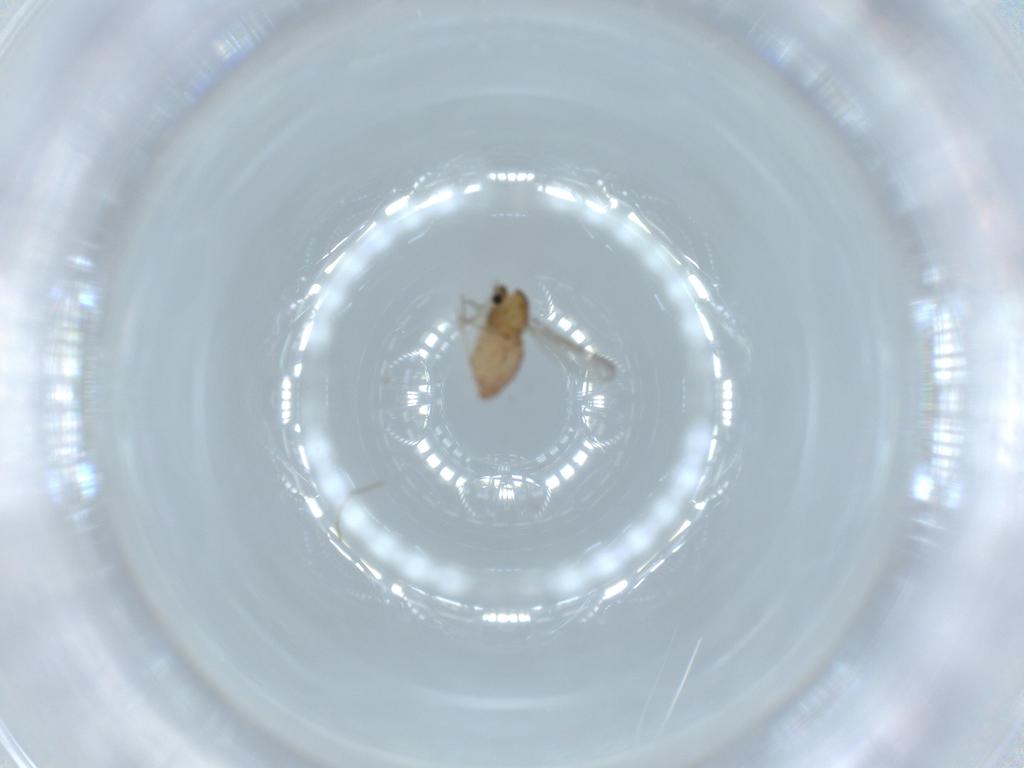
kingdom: Animalia
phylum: Arthropoda
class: Insecta
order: Diptera
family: Chironomidae
